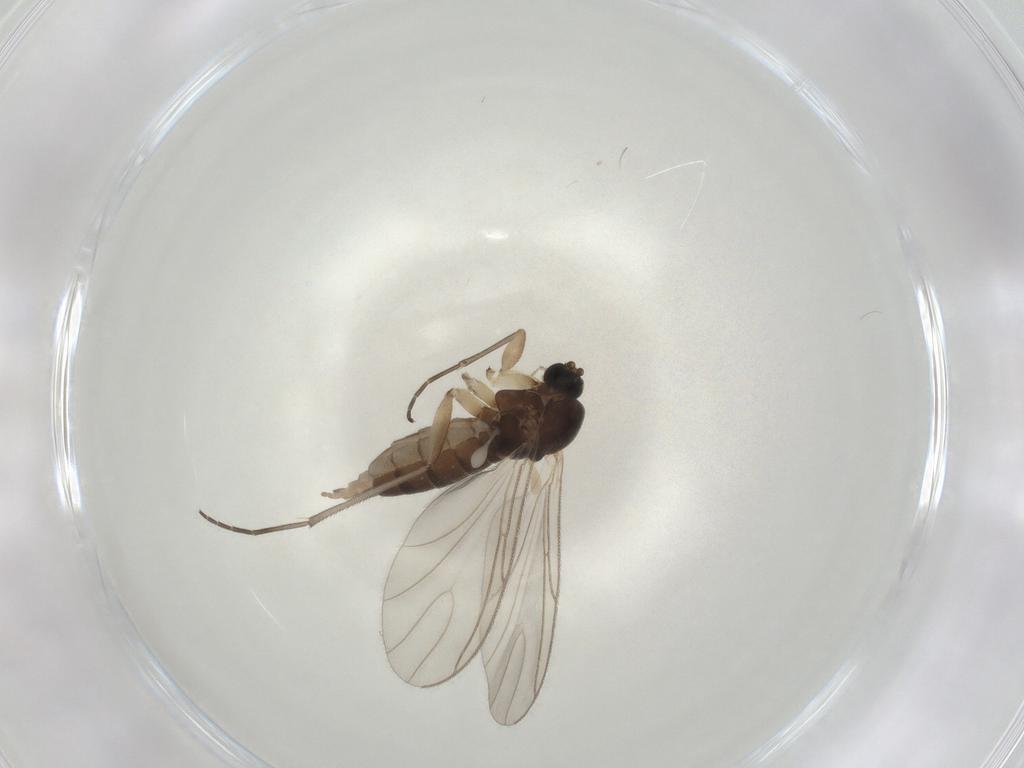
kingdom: Animalia
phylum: Arthropoda
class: Insecta
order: Diptera
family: Sciaridae
